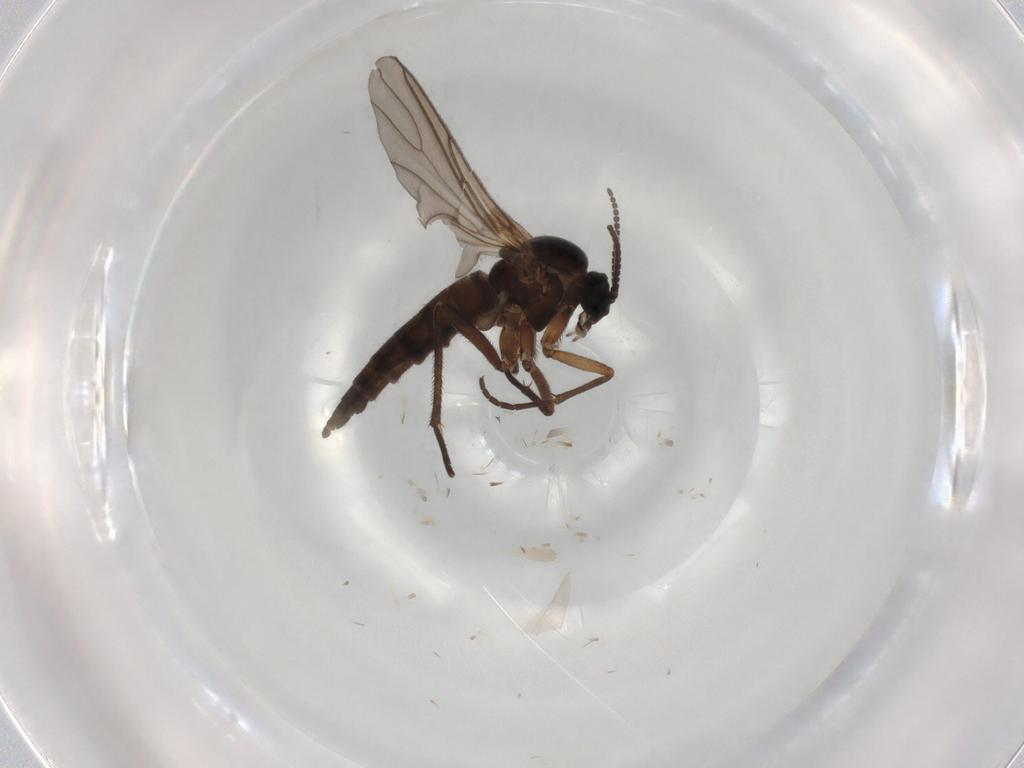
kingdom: Animalia
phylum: Arthropoda
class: Insecta
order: Diptera
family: Sciaridae
